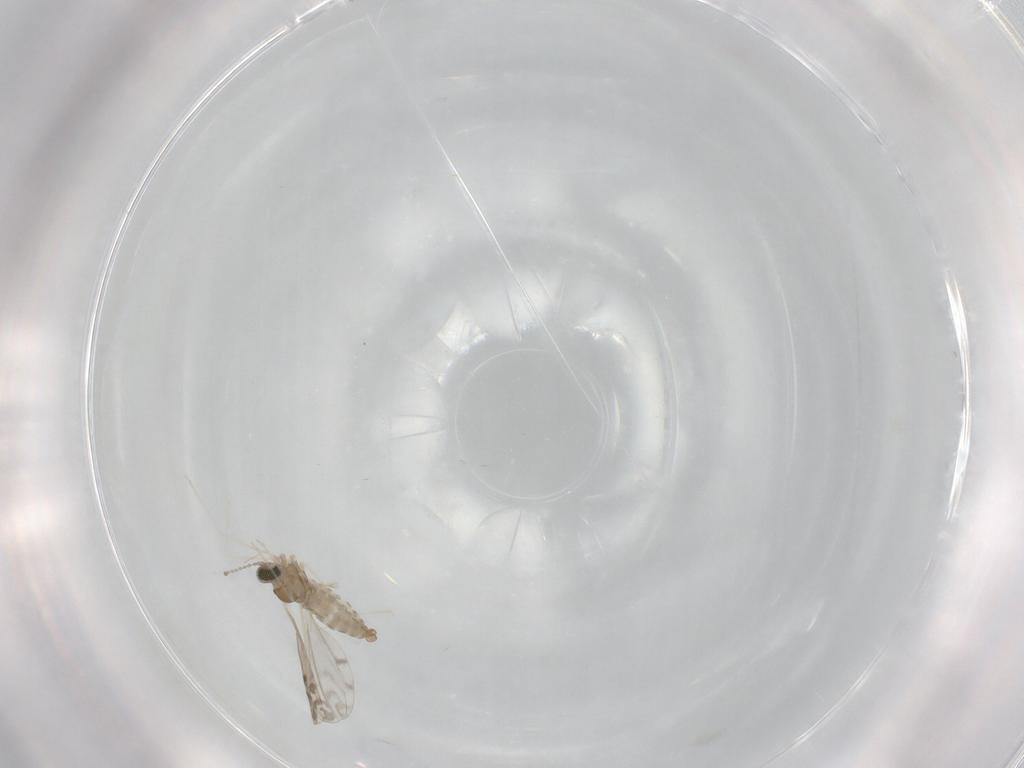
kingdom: Animalia
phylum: Arthropoda
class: Insecta
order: Diptera
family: Cecidomyiidae
